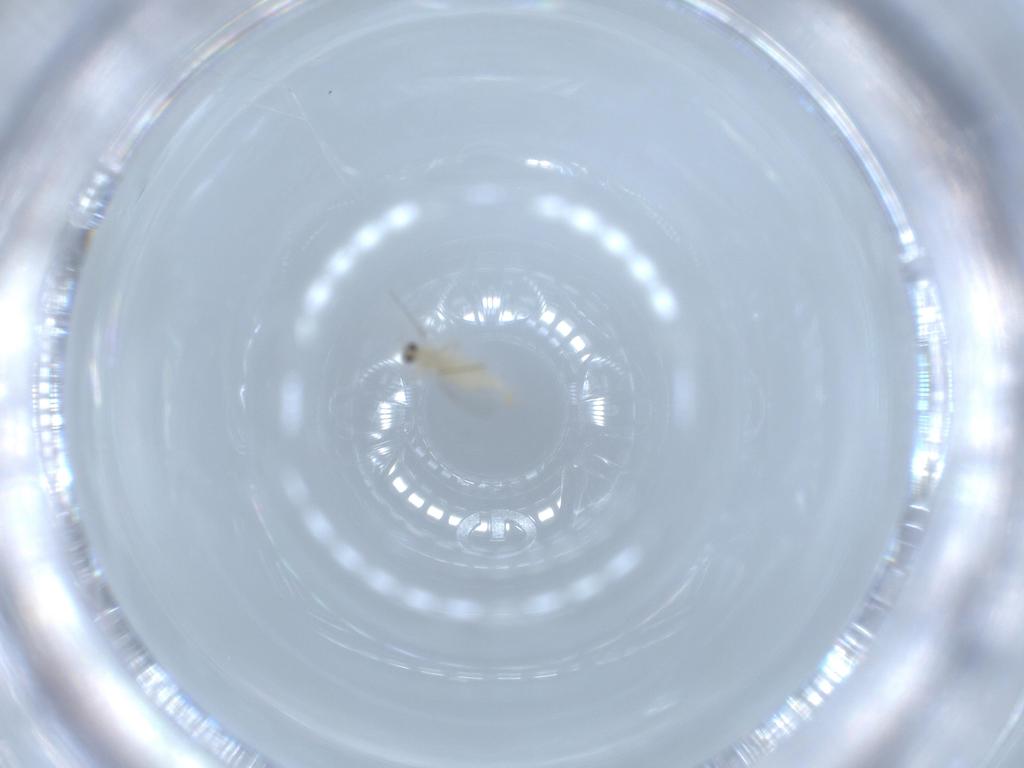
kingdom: Animalia
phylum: Arthropoda
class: Insecta
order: Diptera
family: Cecidomyiidae
